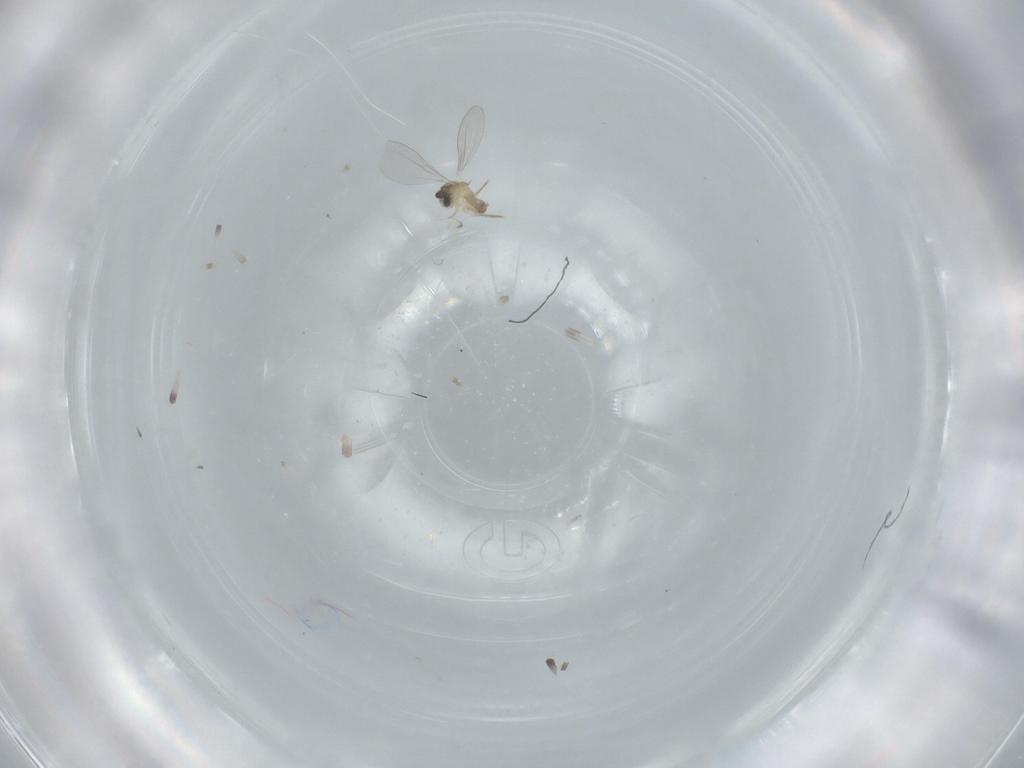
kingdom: Animalia
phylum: Arthropoda
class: Insecta
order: Diptera
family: Cecidomyiidae
